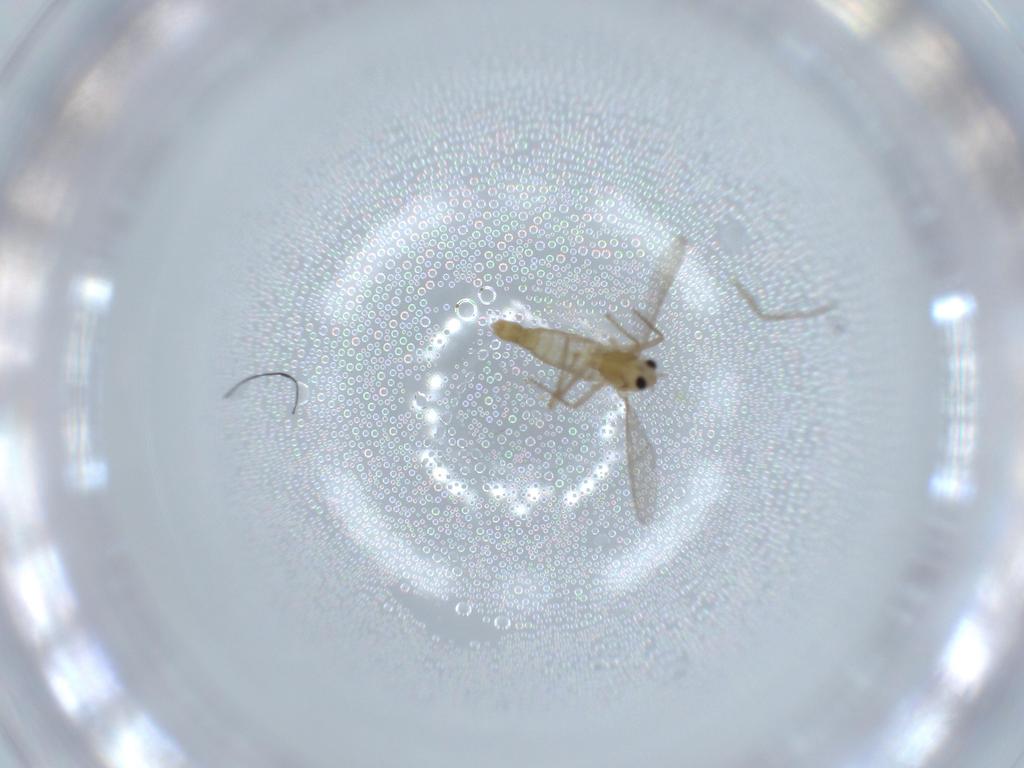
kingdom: Animalia
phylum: Arthropoda
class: Insecta
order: Diptera
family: Chironomidae
